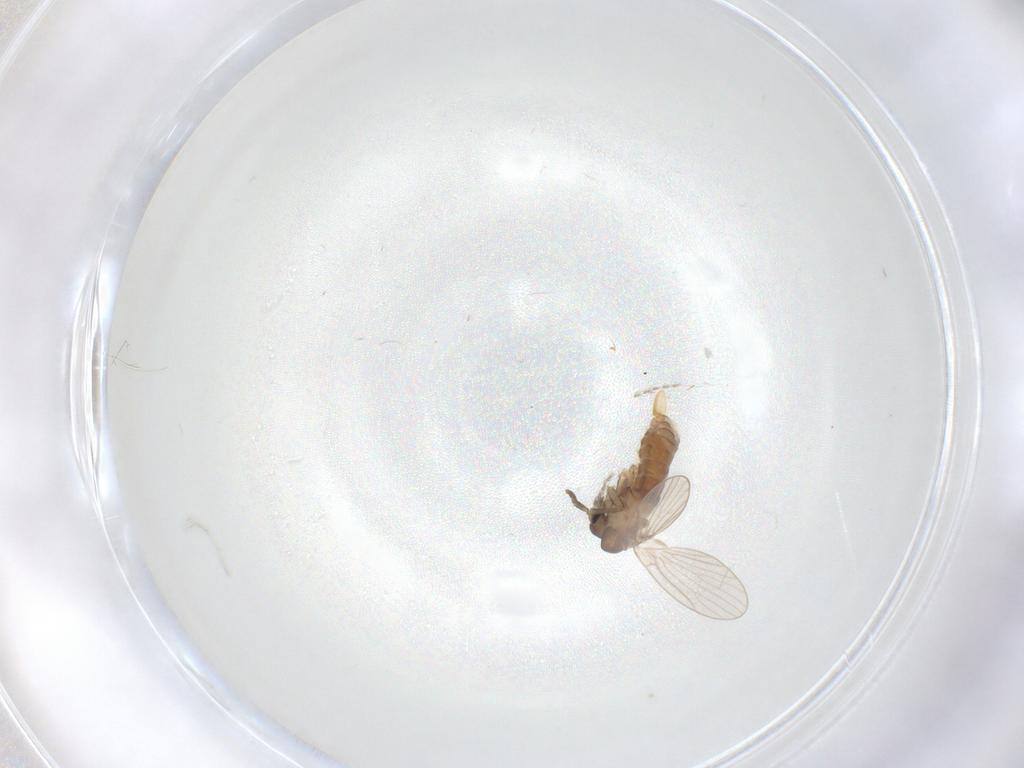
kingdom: Animalia
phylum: Arthropoda
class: Insecta
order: Diptera
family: Psychodidae
